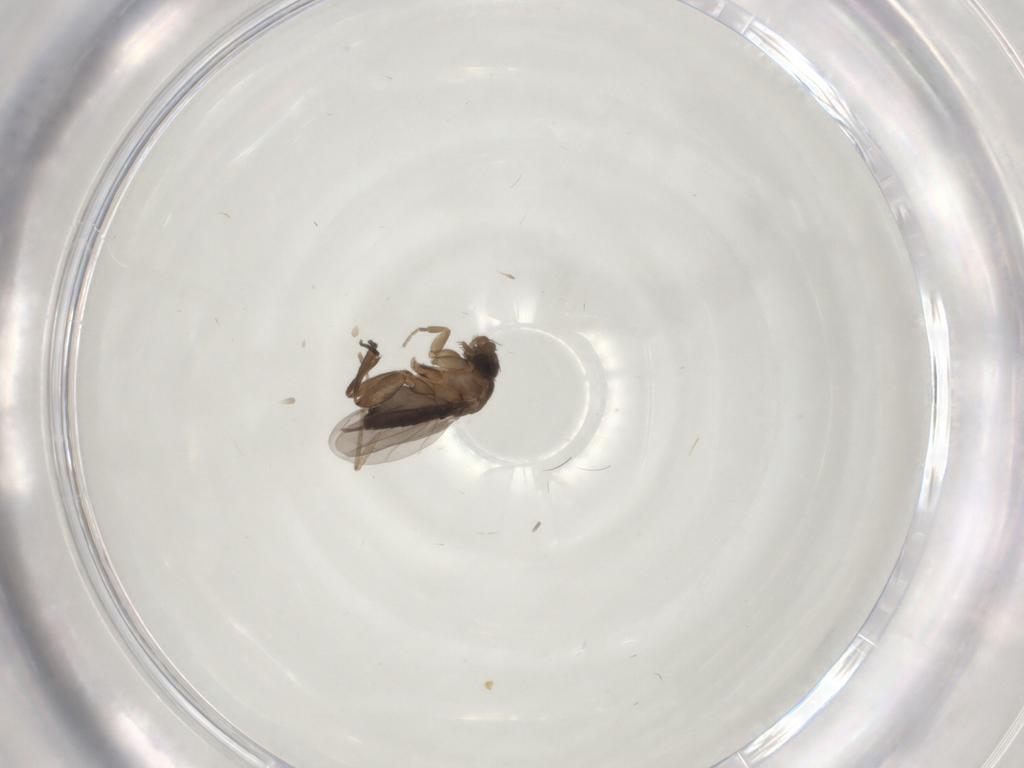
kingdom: Animalia
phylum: Arthropoda
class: Insecta
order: Diptera
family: Phoridae
